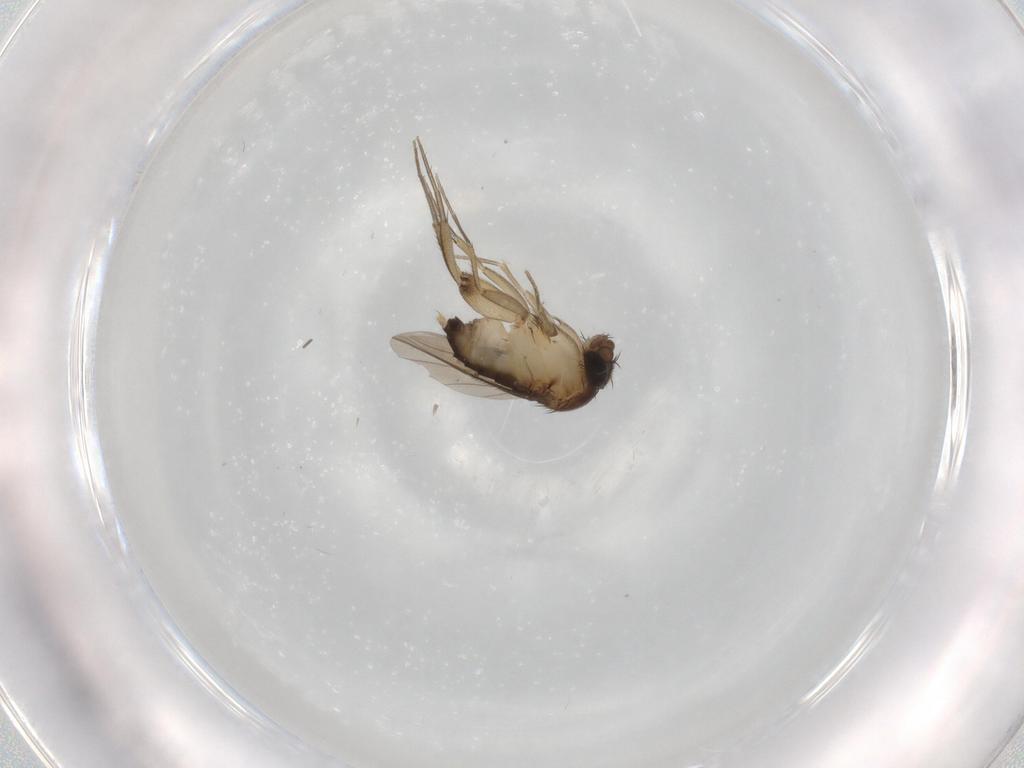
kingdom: Animalia
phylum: Arthropoda
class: Insecta
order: Diptera
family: Phoridae
